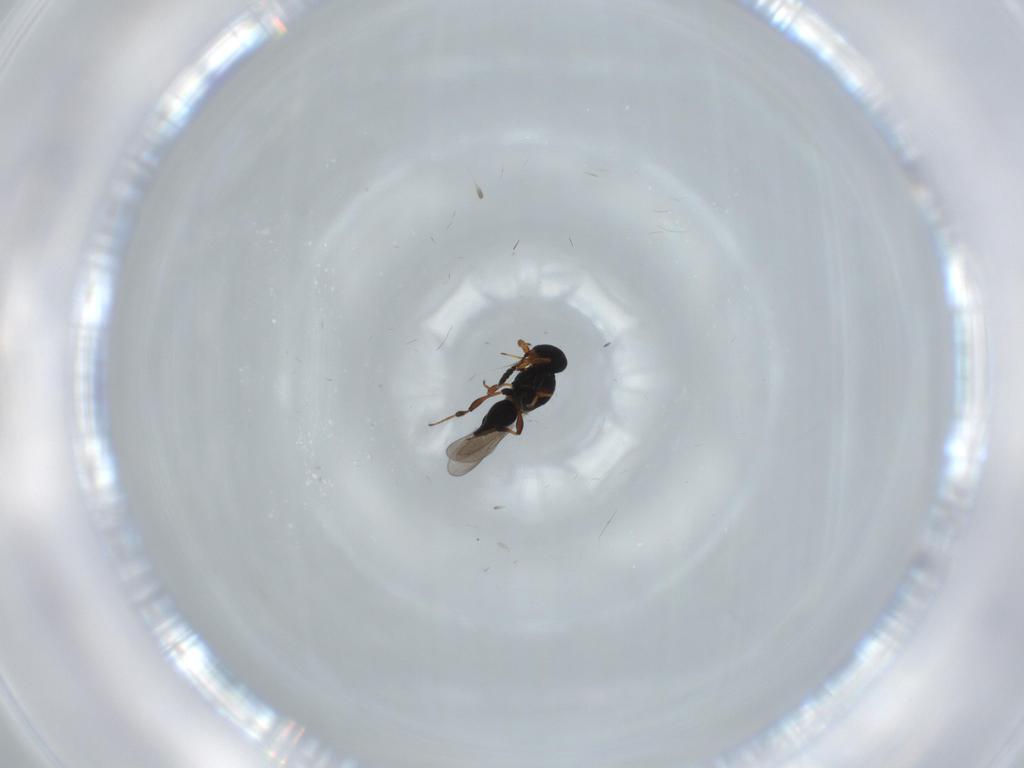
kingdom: Animalia
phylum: Arthropoda
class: Insecta
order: Hymenoptera
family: Platygastridae
